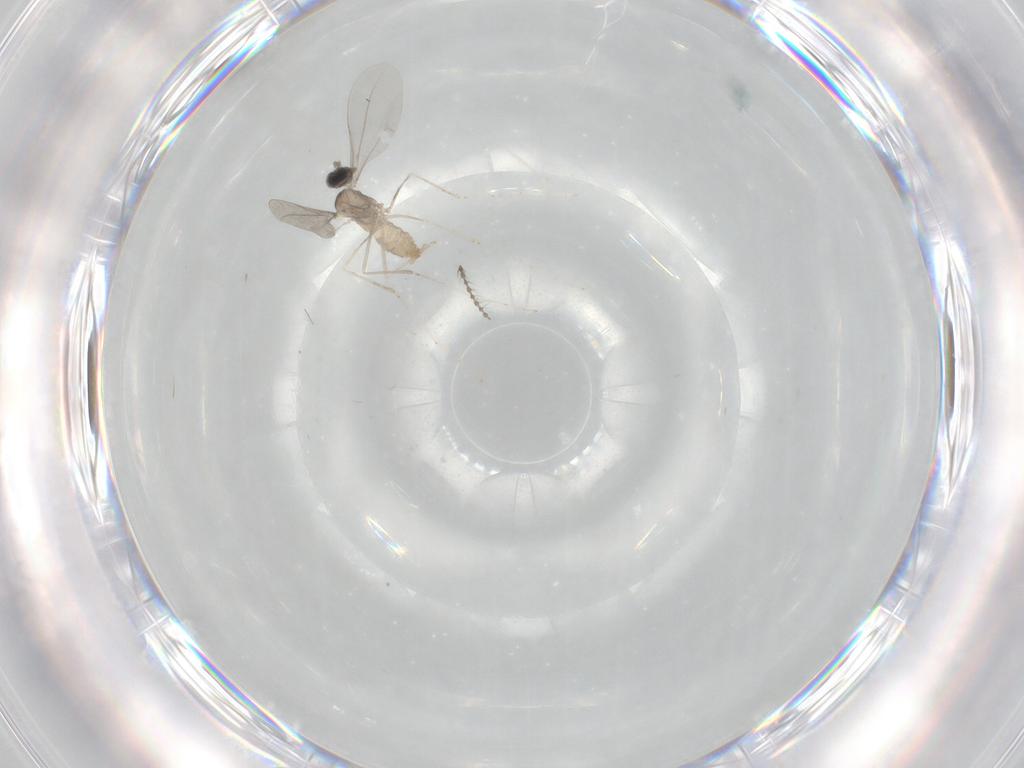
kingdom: Animalia
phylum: Arthropoda
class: Insecta
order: Diptera
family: Cecidomyiidae
